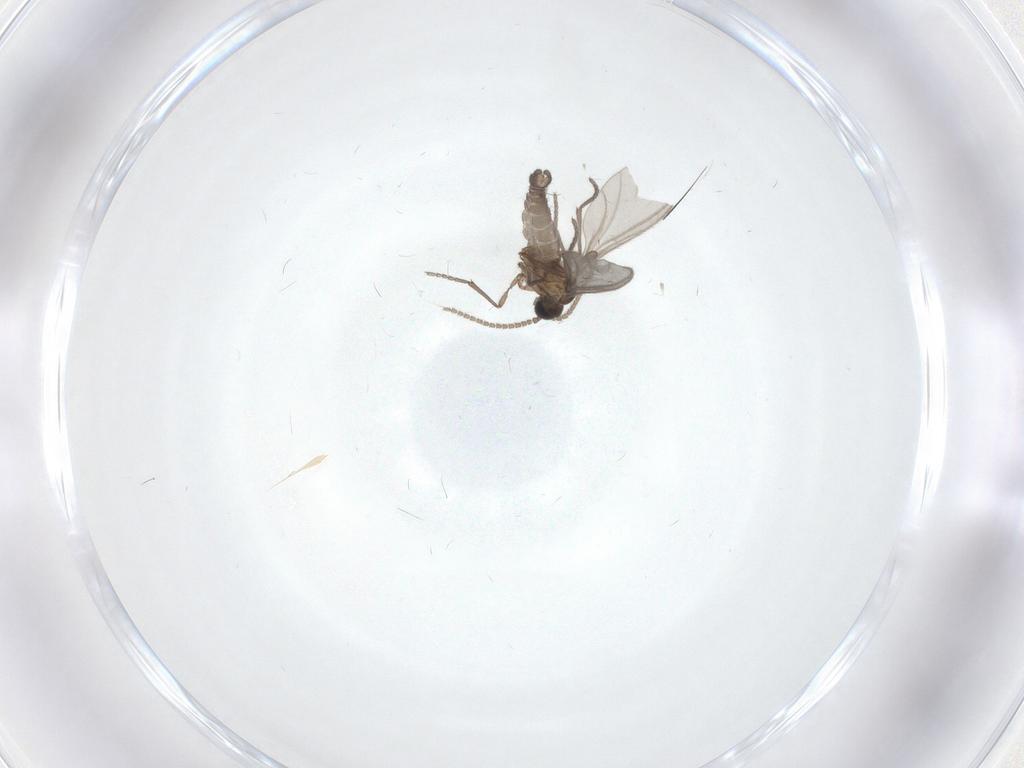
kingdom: Animalia
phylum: Arthropoda
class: Insecta
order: Diptera
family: Sciaridae
